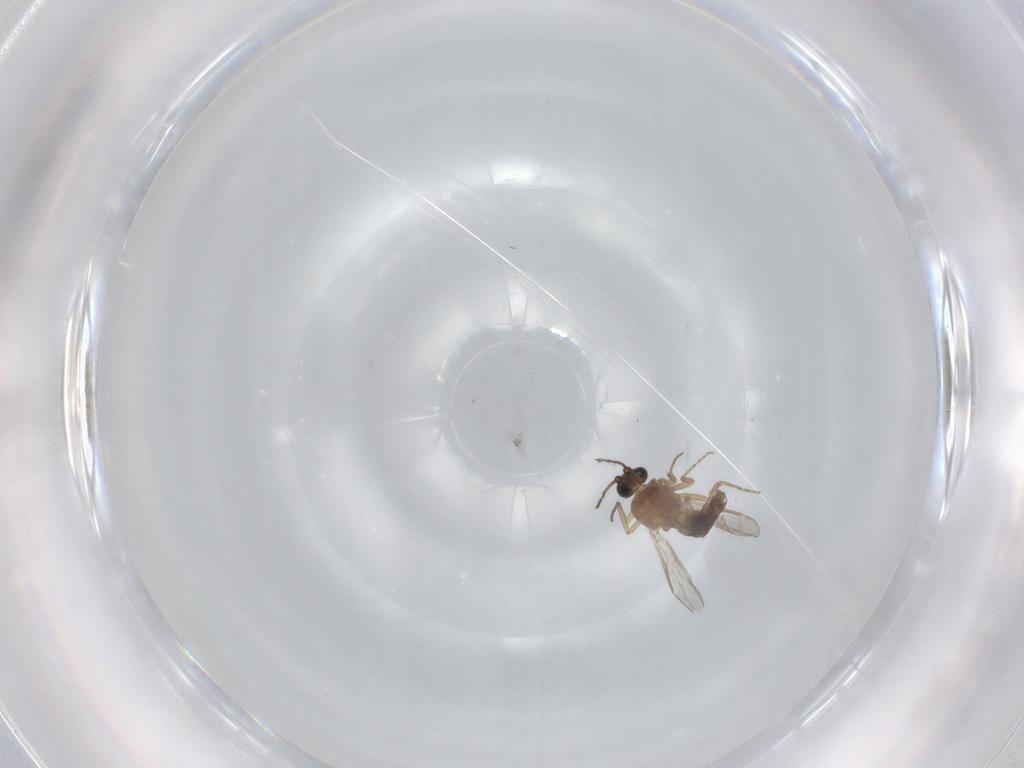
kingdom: Animalia
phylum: Arthropoda
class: Insecta
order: Diptera
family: Ceratopogonidae
